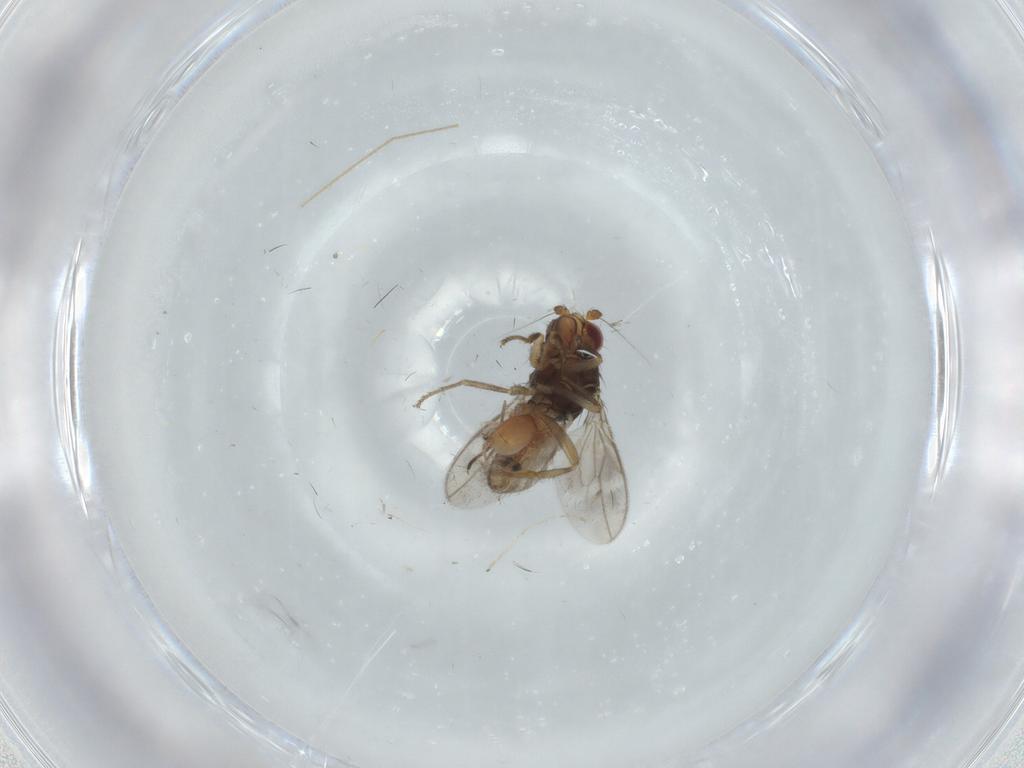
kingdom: Animalia
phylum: Arthropoda
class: Insecta
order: Diptera
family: Sphaeroceridae
